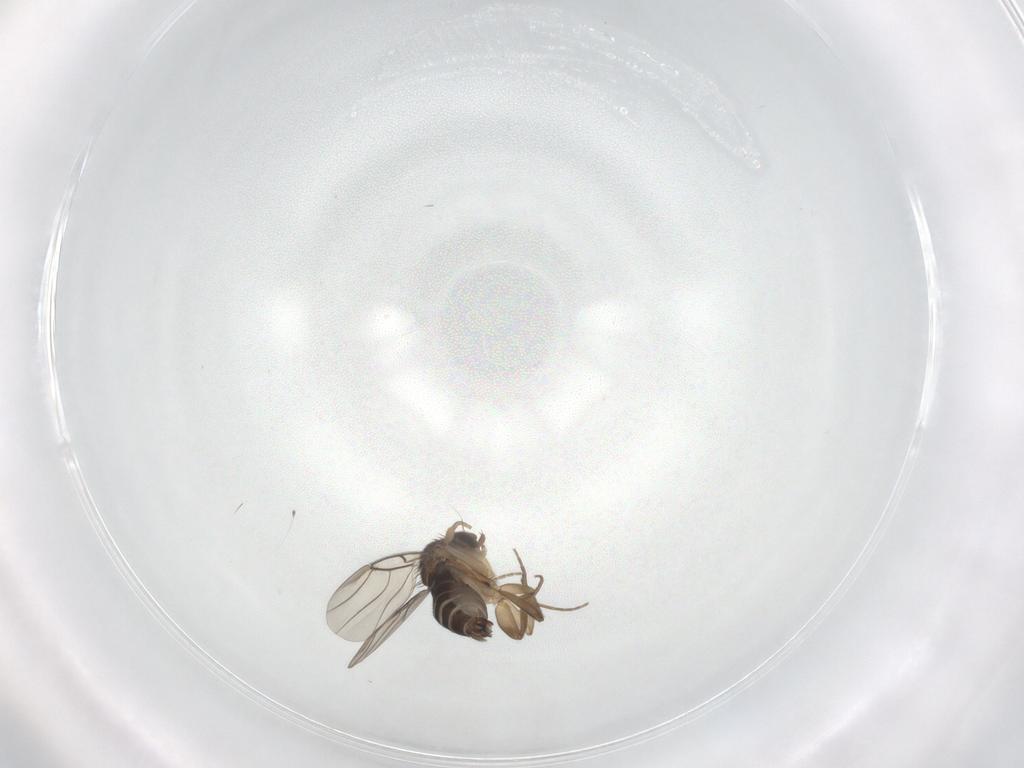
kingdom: Animalia
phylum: Arthropoda
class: Insecta
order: Diptera
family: Phoridae
